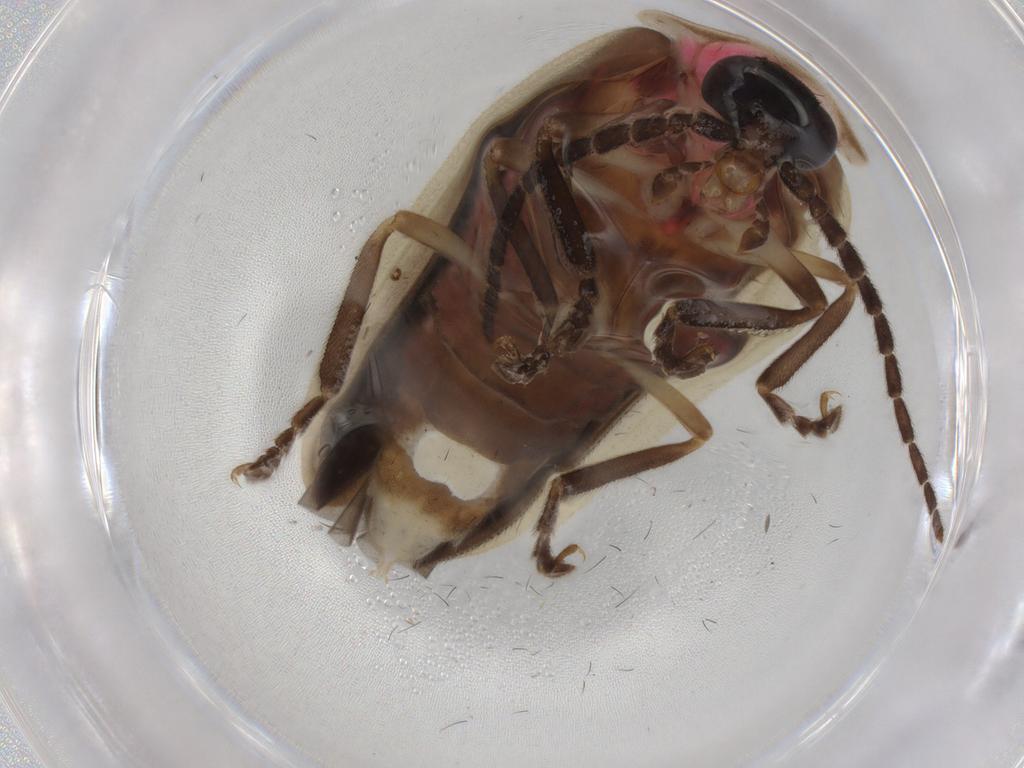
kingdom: Animalia
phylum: Arthropoda
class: Insecta
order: Coleoptera
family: Lampyridae
